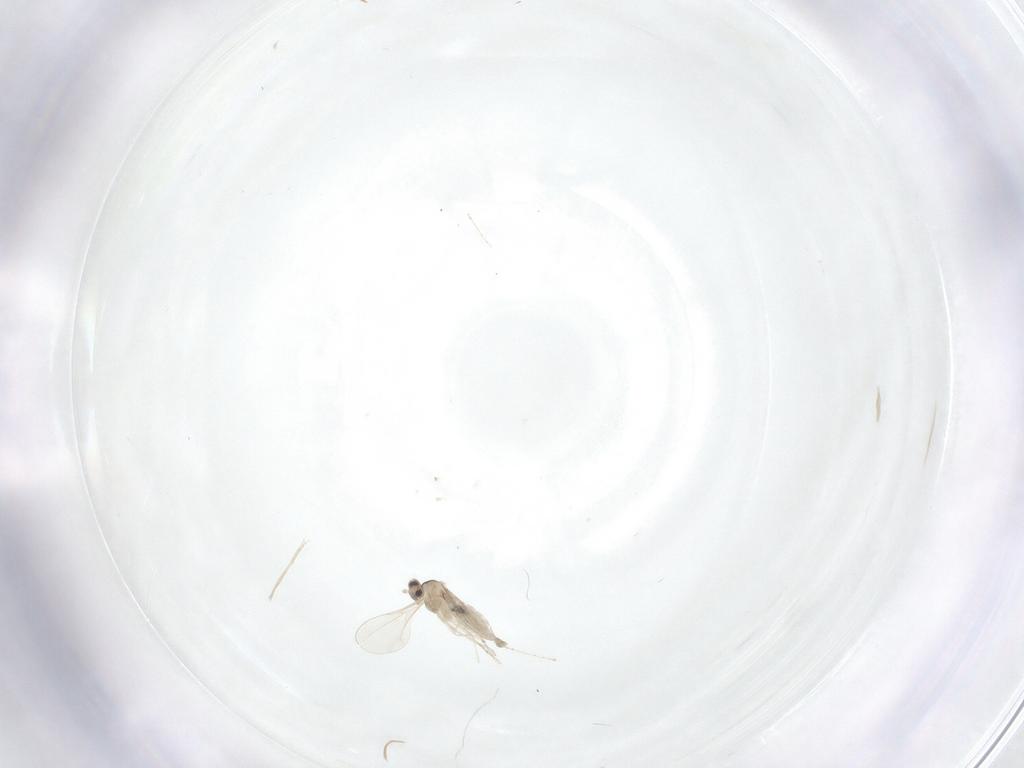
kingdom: Animalia
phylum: Arthropoda
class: Insecta
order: Diptera
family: Cecidomyiidae
